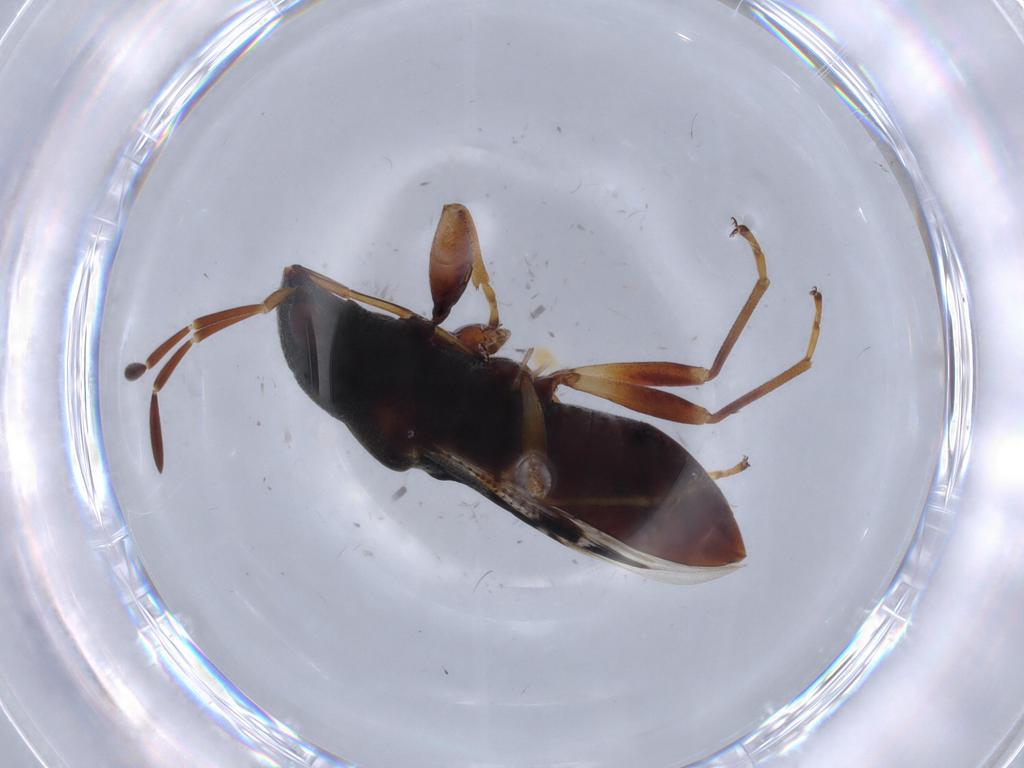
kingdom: Animalia
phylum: Arthropoda
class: Insecta
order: Hemiptera
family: Rhyparochromidae
